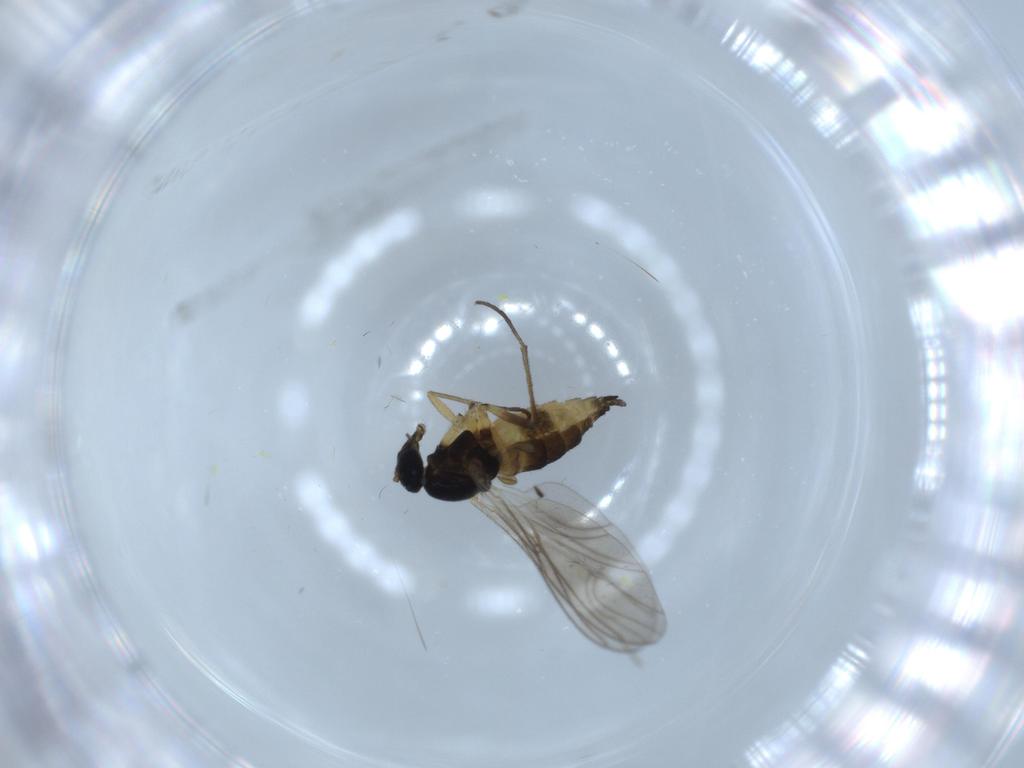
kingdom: Animalia
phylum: Arthropoda
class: Insecta
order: Diptera
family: Sciaridae
